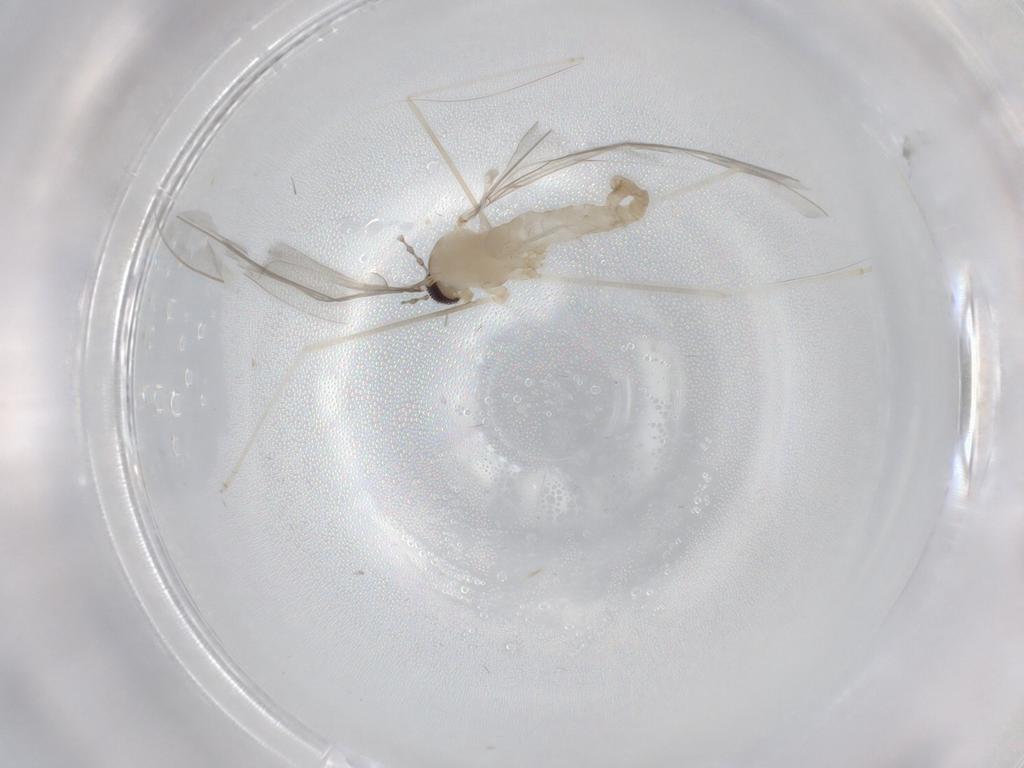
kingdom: Animalia
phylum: Arthropoda
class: Insecta
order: Diptera
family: Cecidomyiidae
